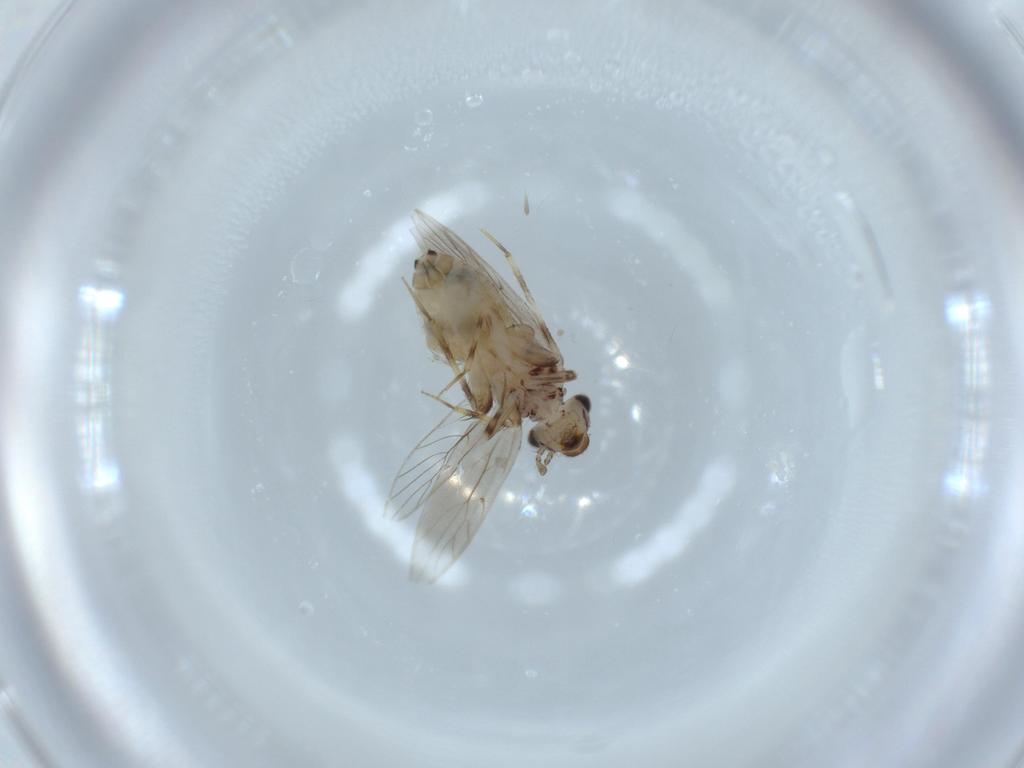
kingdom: Animalia
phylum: Arthropoda
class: Insecta
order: Psocodea
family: Lepidopsocidae
